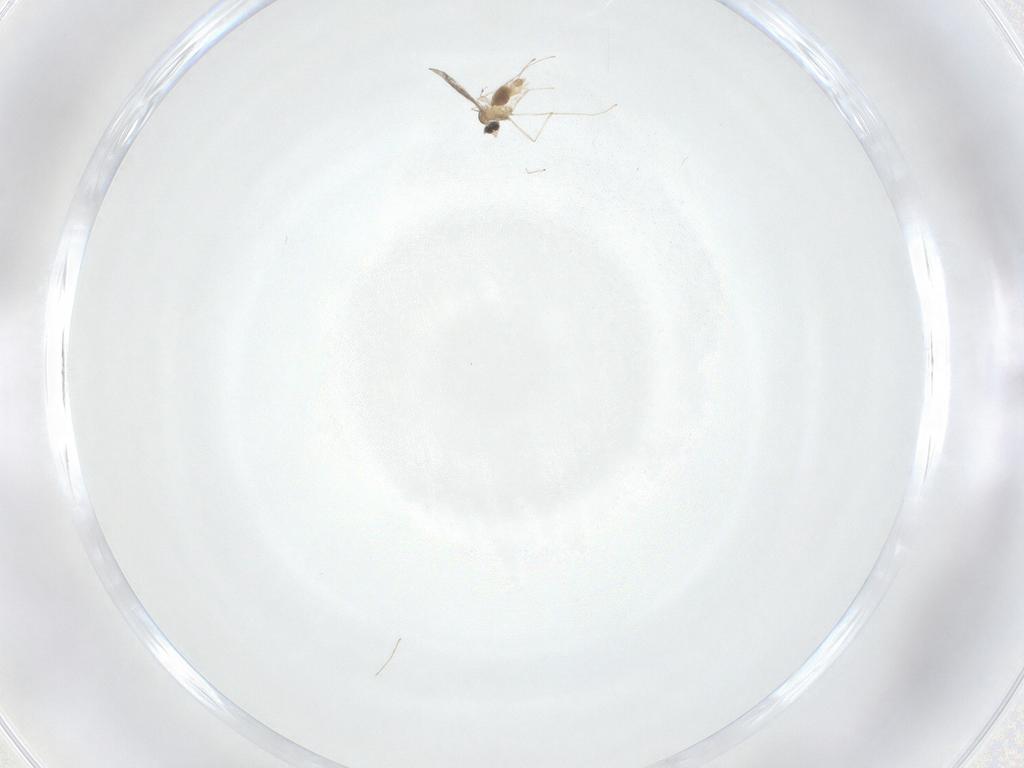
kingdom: Animalia
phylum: Arthropoda
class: Insecta
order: Diptera
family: Cecidomyiidae
